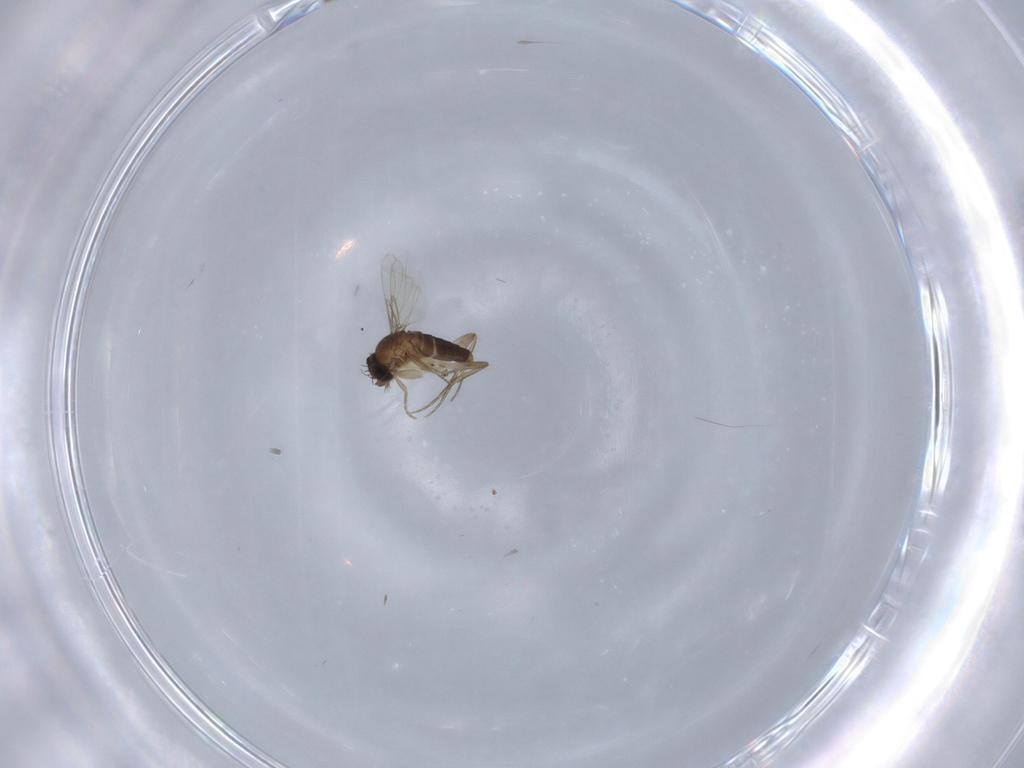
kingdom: Animalia
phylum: Arthropoda
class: Insecta
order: Diptera
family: Phoridae
